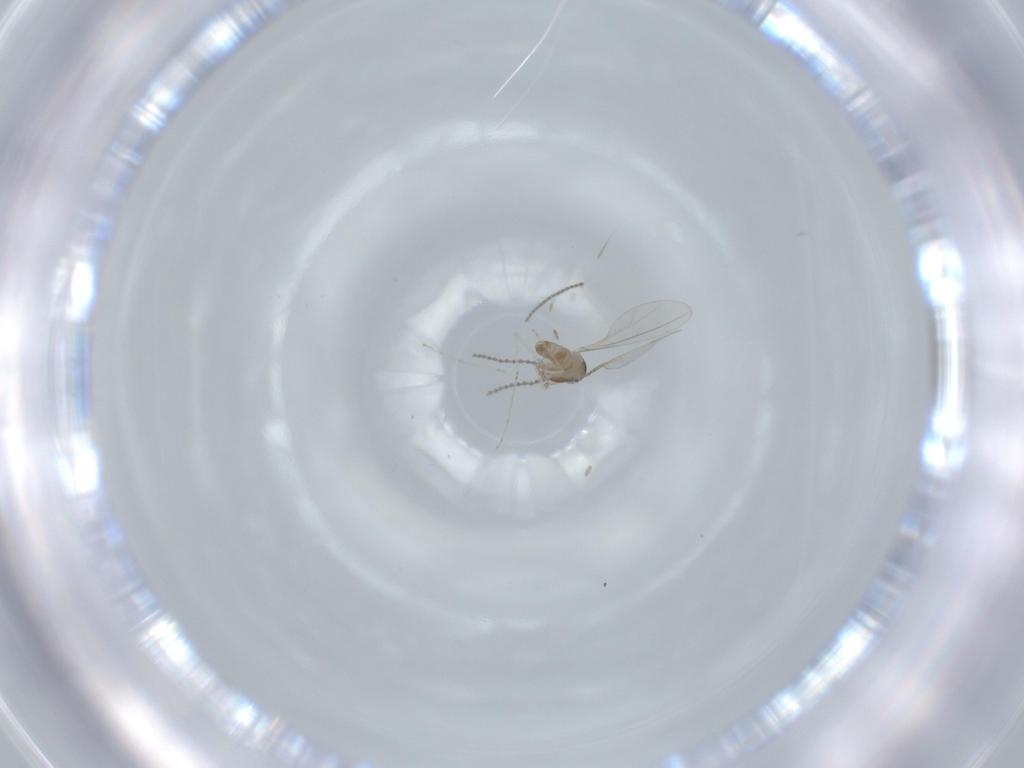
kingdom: Animalia
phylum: Arthropoda
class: Insecta
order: Diptera
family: Cecidomyiidae
